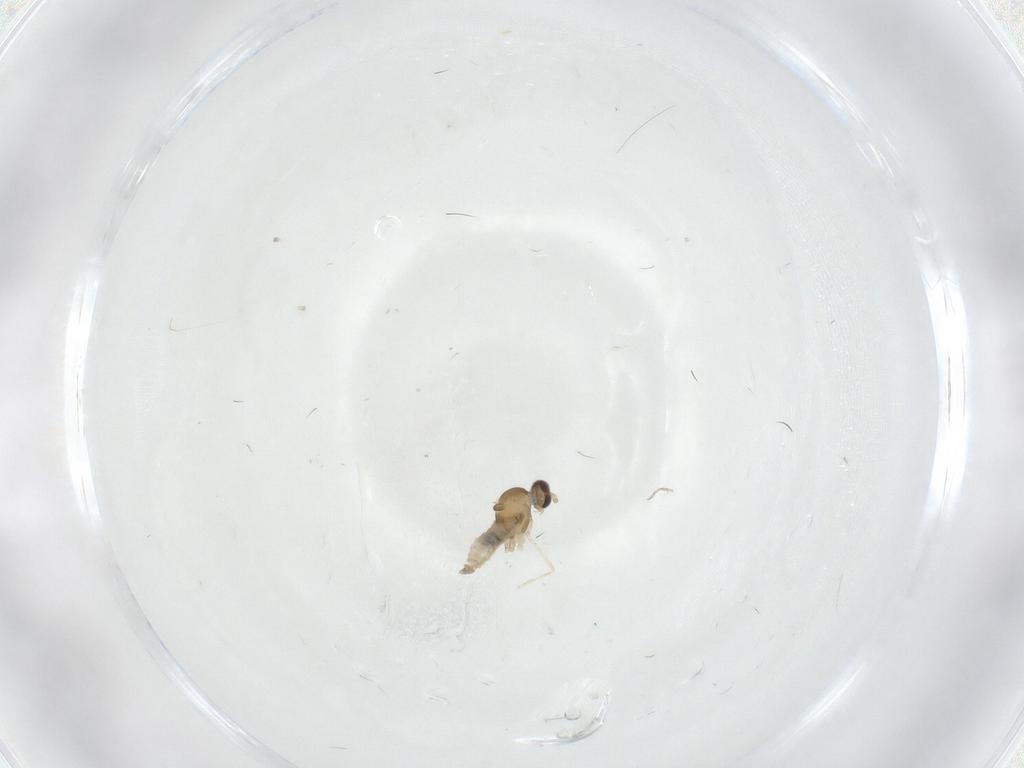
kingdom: Animalia
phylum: Arthropoda
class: Insecta
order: Diptera
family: Cecidomyiidae
